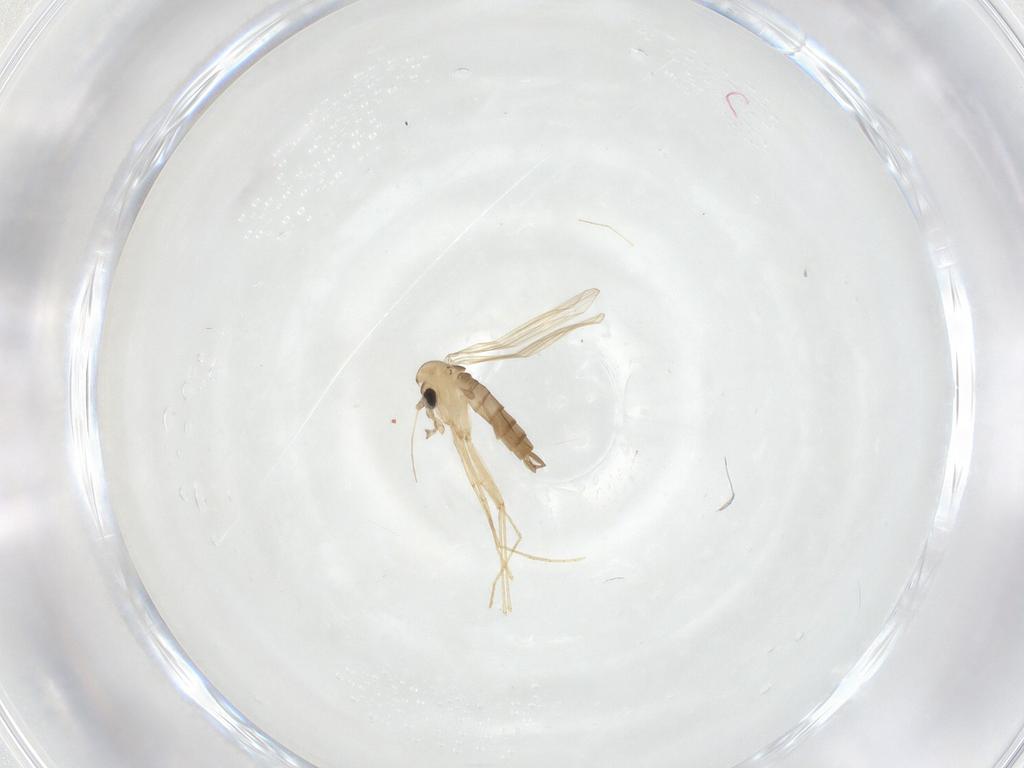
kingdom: Animalia
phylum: Arthropoda
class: Insecta
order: Diptera
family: Psychodidae
